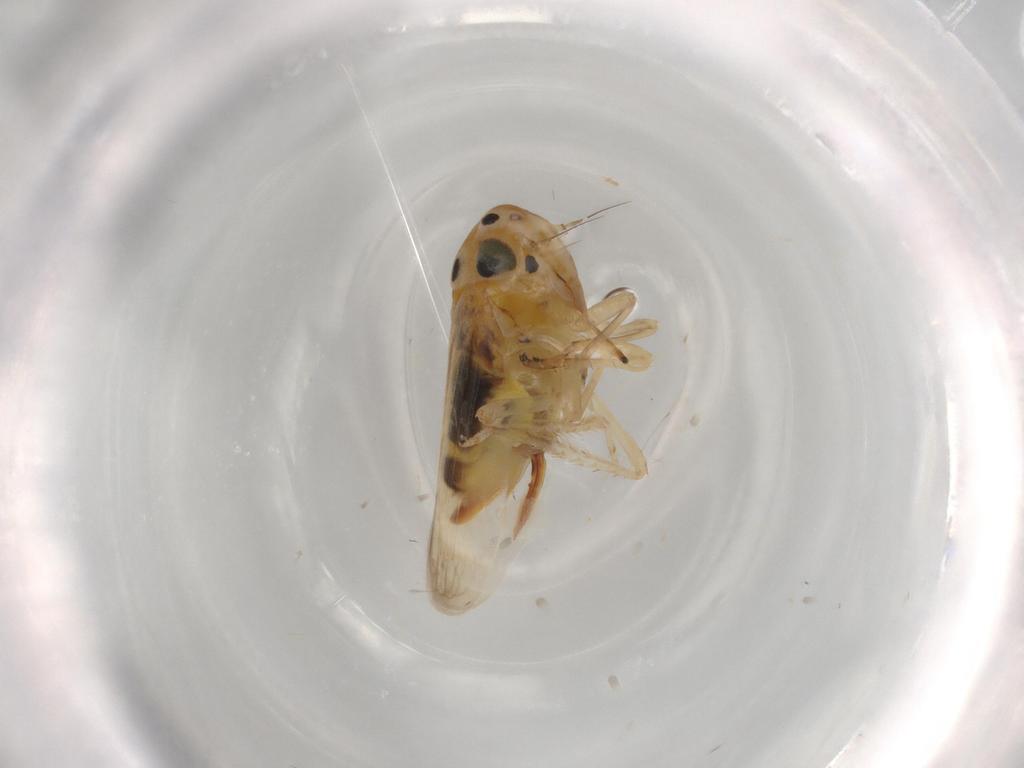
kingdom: Animalia
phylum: Arthropoda
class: Insecta
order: Hemiptera
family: Cicadellidae
